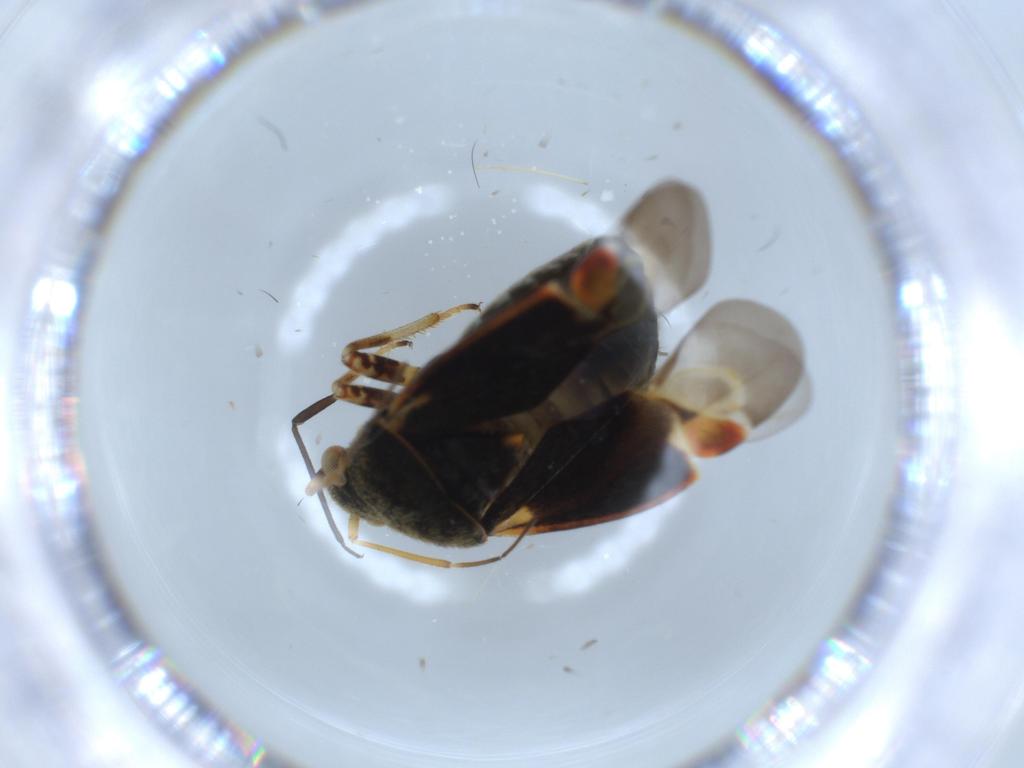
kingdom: Animalia
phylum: Arthropoda
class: Insecta
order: Hemiptera
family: Miridae
